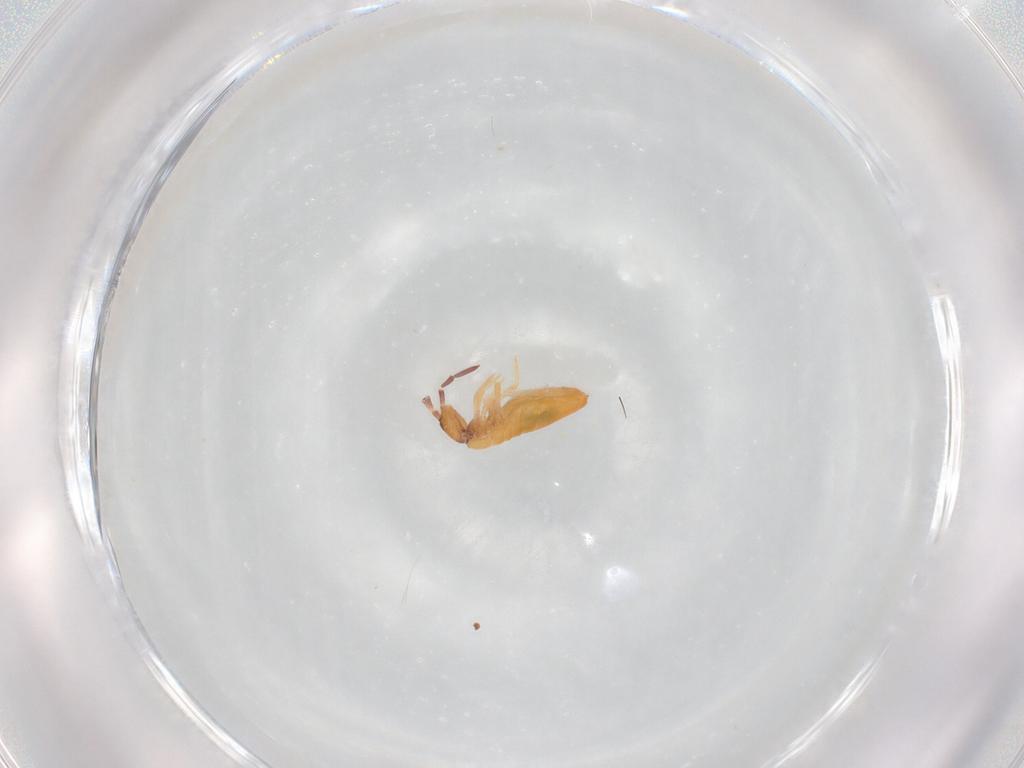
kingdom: Animalia
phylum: Arthropoda
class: Collembola
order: Entomobryomorpha
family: Entomobryidae
